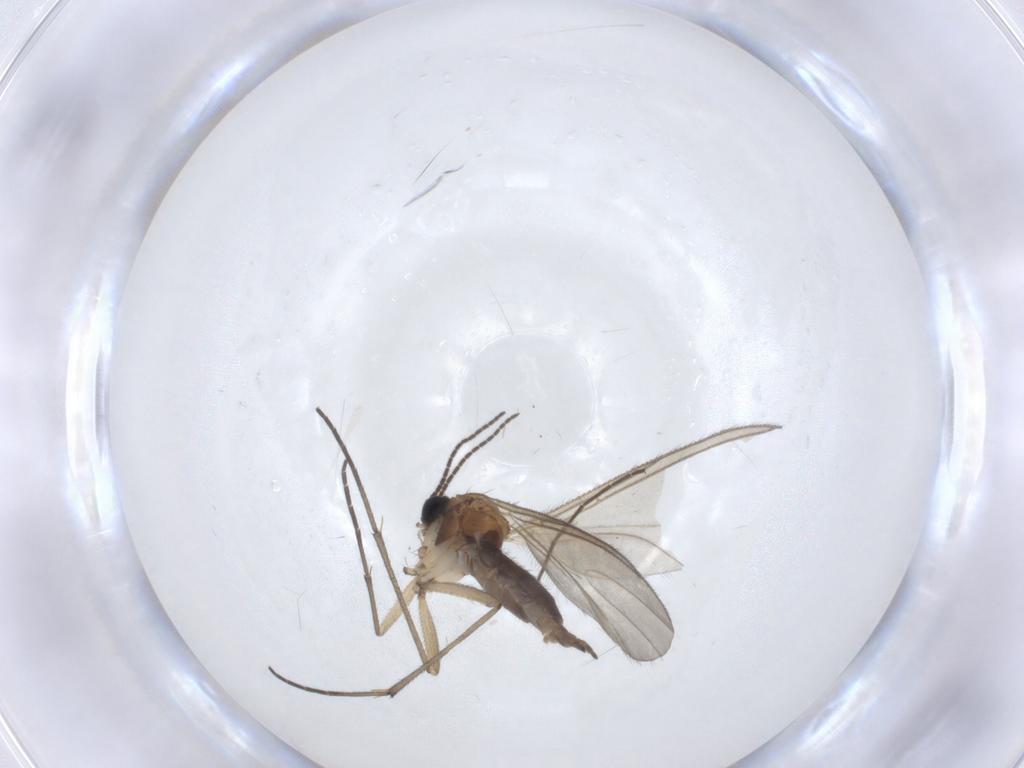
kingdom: Animalia
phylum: Arthropoda
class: Insecta
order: Diptera
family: Sciaridae
